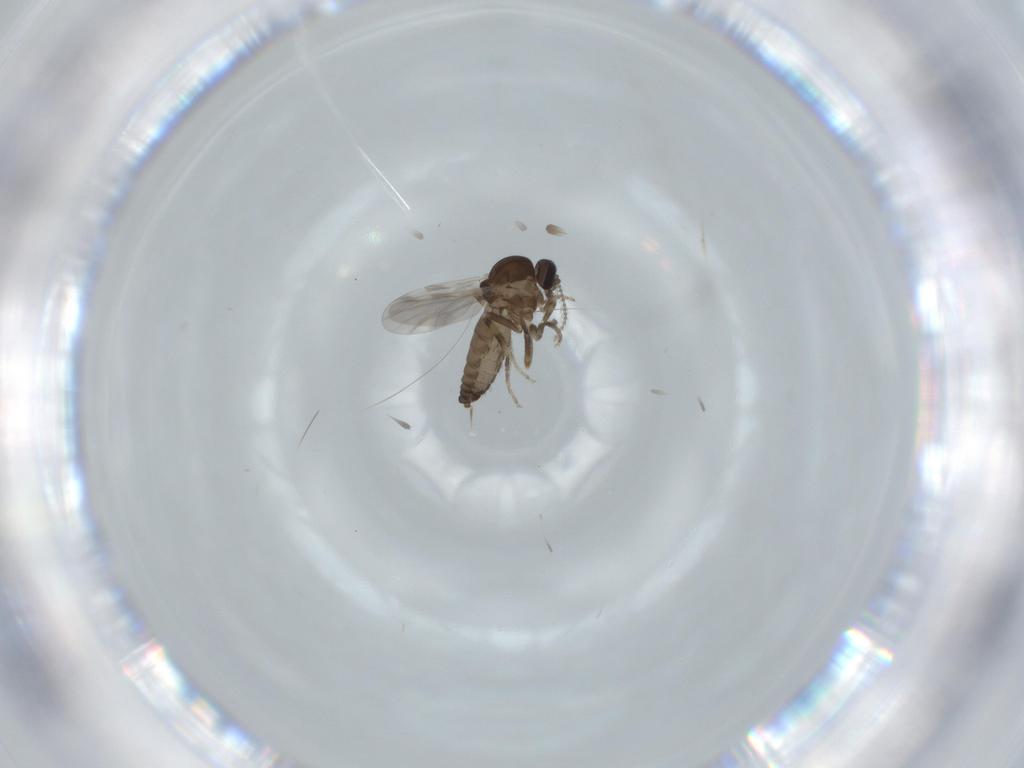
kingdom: Animalia
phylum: Arthropoda
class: Insecta
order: Diptera
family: Ceratopogonidae
